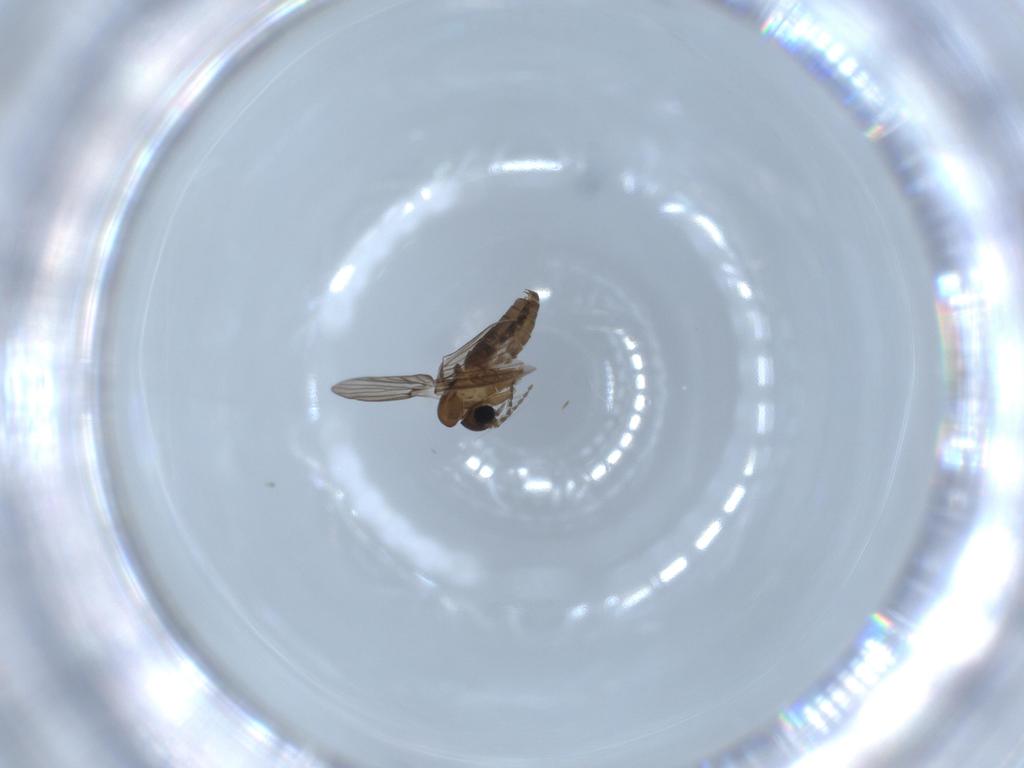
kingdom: Animalia
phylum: Arthropoda
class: Insecta
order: Diptera
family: Psychodidae
